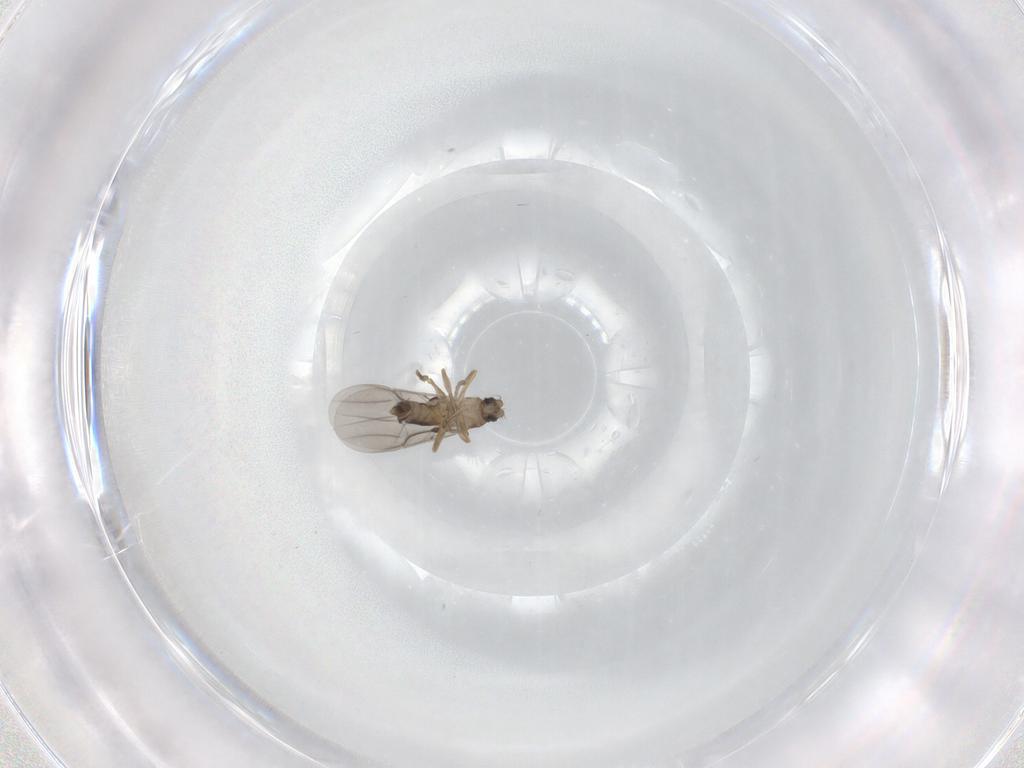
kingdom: Animalia
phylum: Arthropoda
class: Insecta
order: Diptera
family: Phoridae
